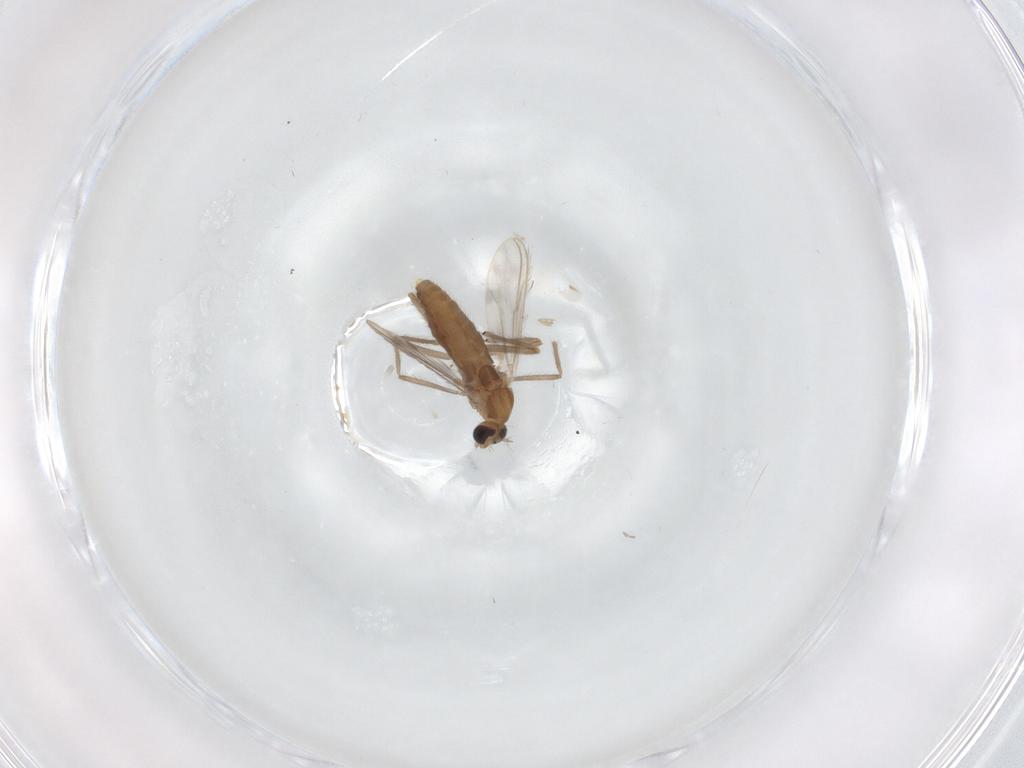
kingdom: Animalia
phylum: Arthropoda
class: Insecta
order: Diptera
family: Chironomidae
